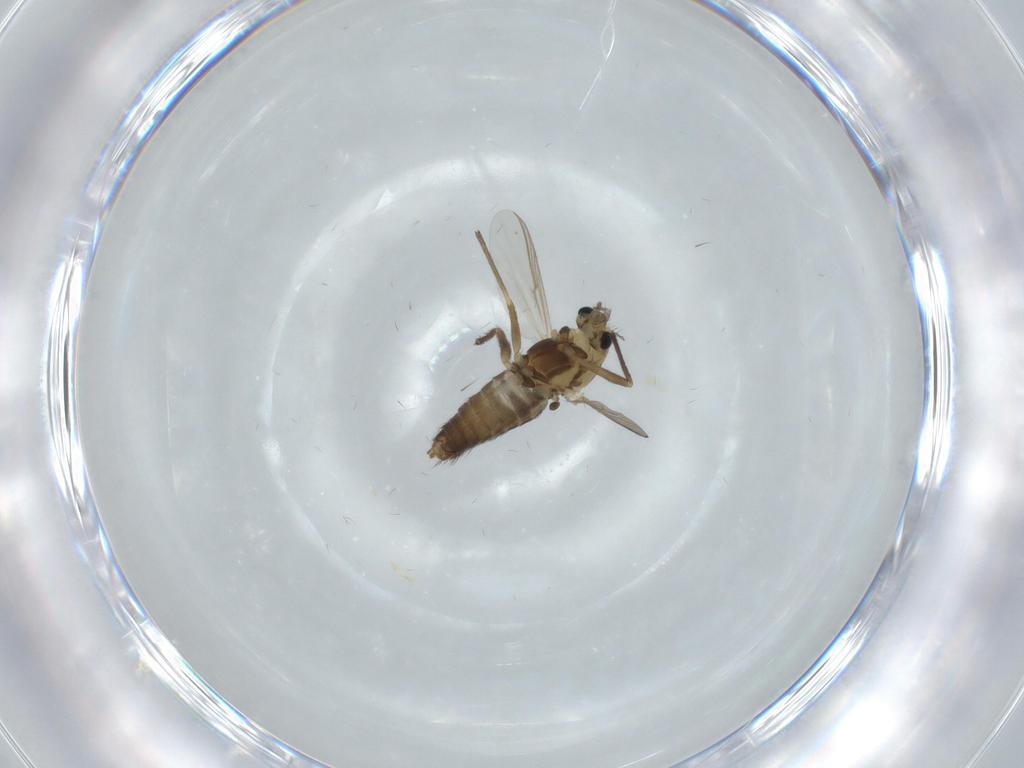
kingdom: Animalia
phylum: Arthropoda
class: Insecta
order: Diptera
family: Chironomidae
